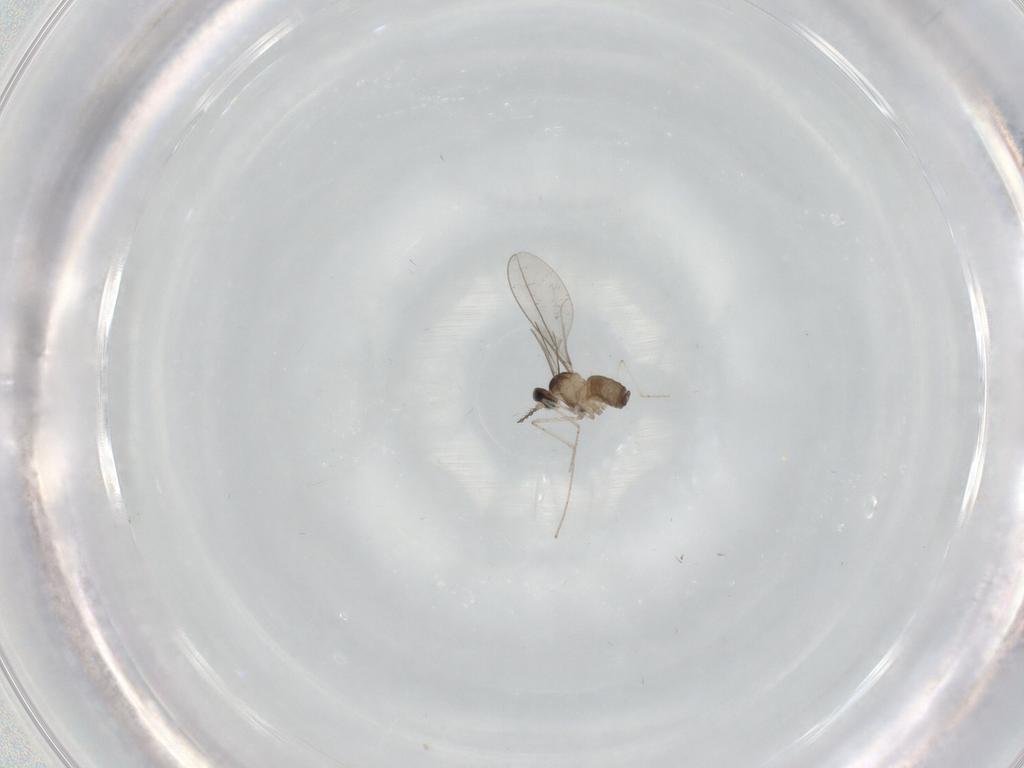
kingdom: Animalia
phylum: Arthropoda
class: Insecta
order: Diptera
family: Cecidomyiidae
